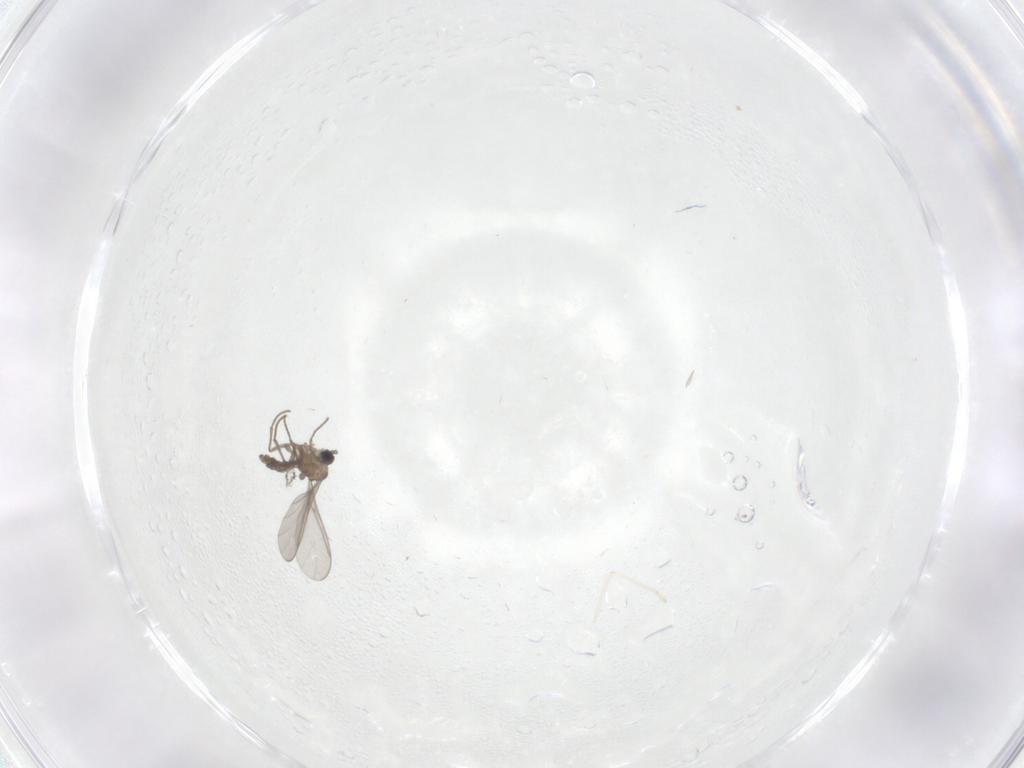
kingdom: Animalia
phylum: Arthropoda
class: Insecta
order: Diptera
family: Sciaridae
